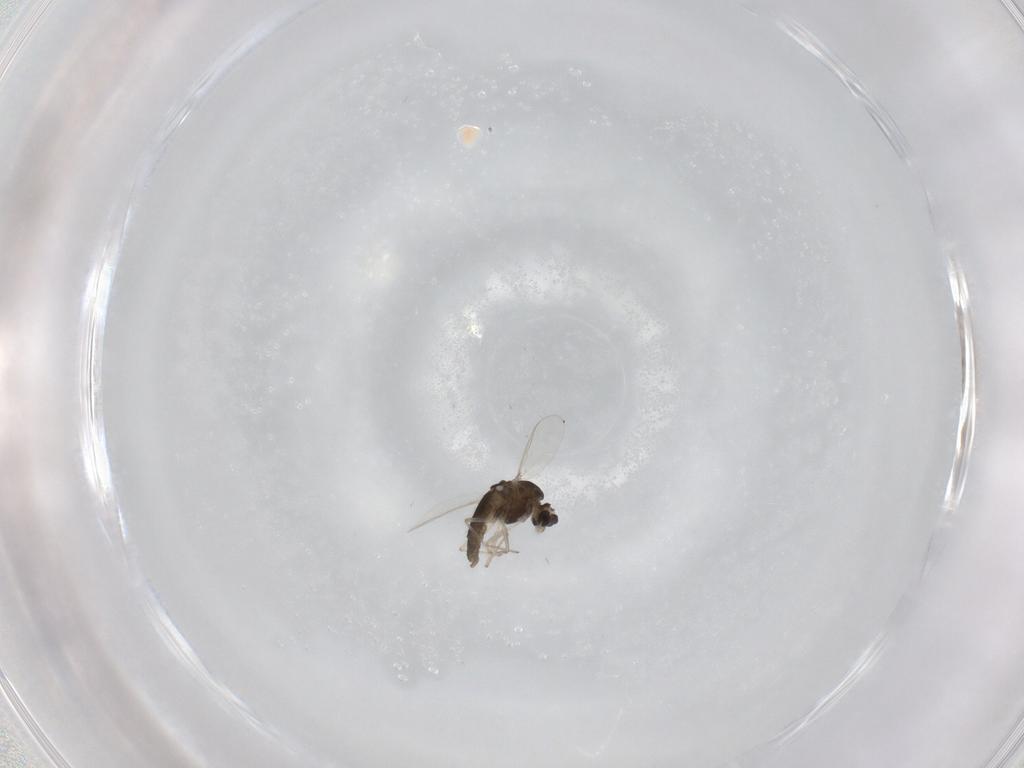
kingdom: Animalia
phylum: Arthropoda
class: Insecta
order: Diptera
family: Chironomidae
